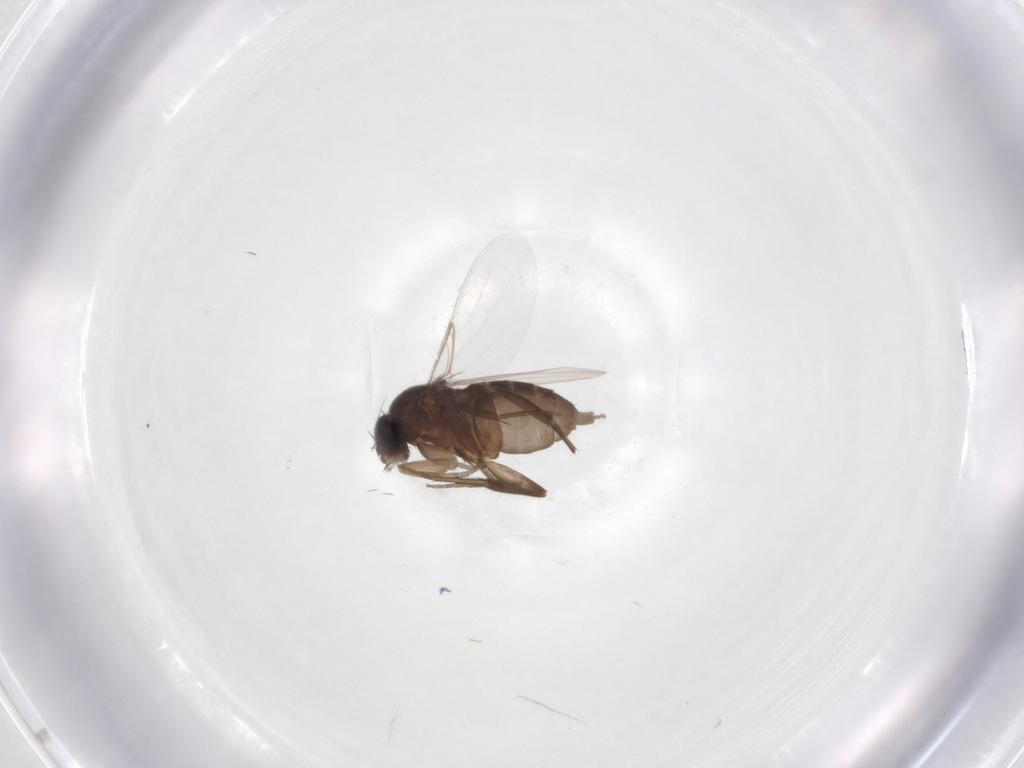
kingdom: Animalia
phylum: Arthropoda
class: Insecta
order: Diptera
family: Phoridae
